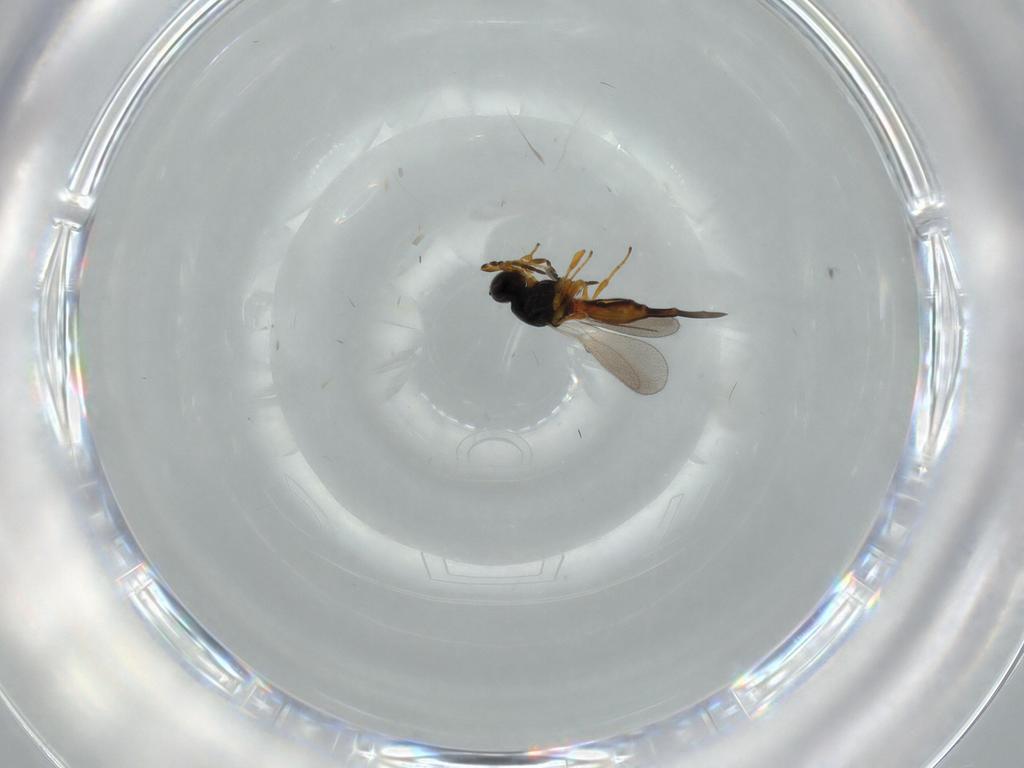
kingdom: Animalia
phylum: Arthropoda
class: Insecta
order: Hymenoptera
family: Platygastridae
